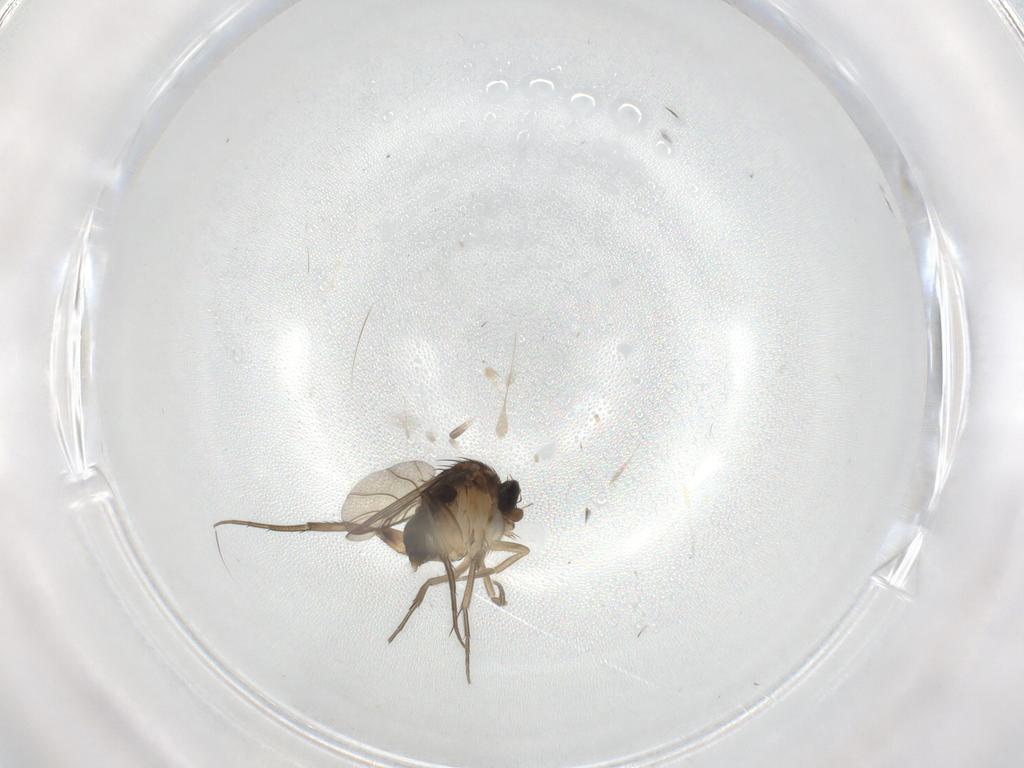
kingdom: Animalia
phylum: Arthropoda
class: Insecta
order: Diptera
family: Phoridae
